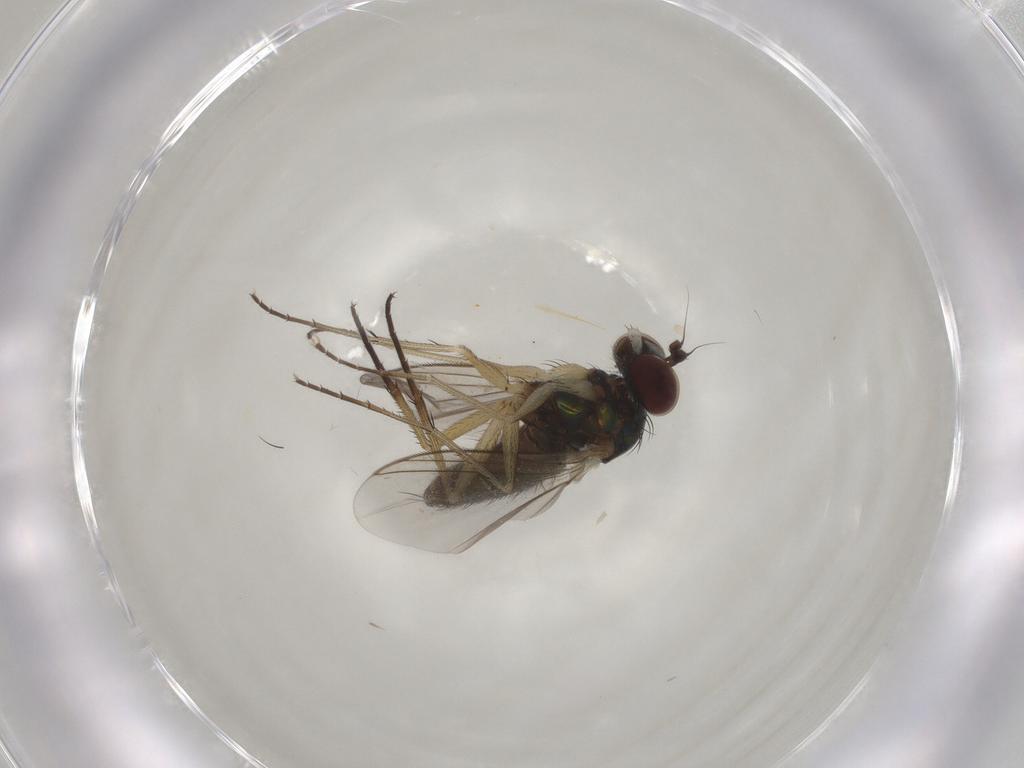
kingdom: Animalia
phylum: Arthropoda
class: Insecta
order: Diptera
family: Dolichopodidae
